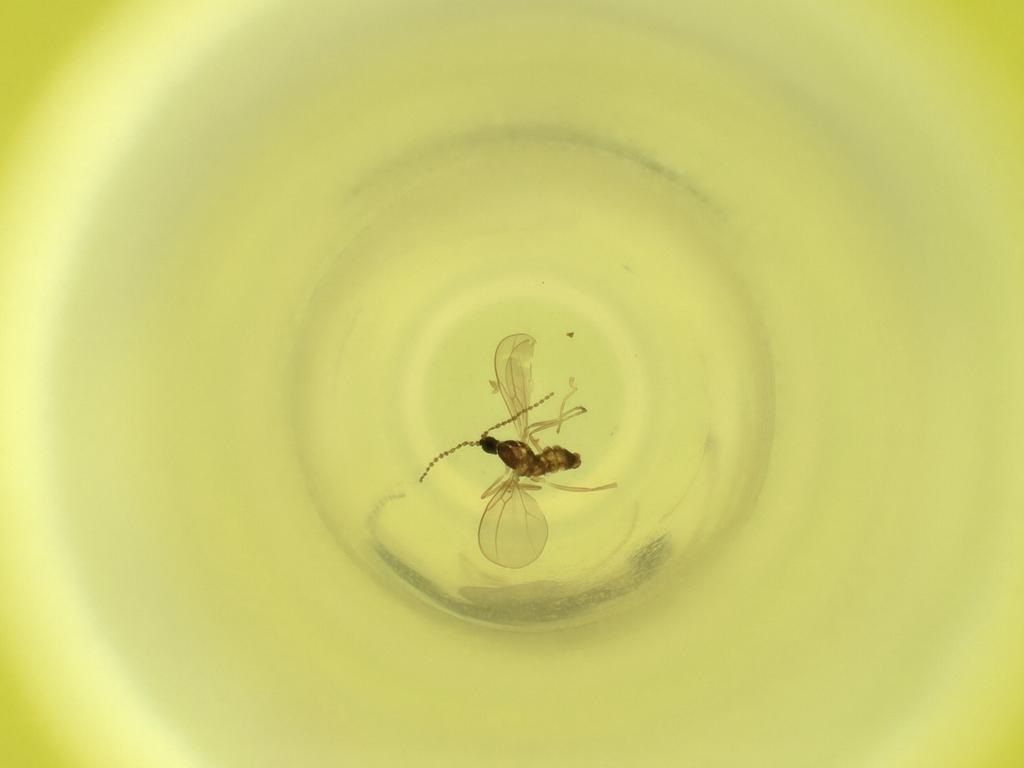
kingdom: Animalia
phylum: Arthropoda
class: Insecta
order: Diptera
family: Cecidomyiidae
